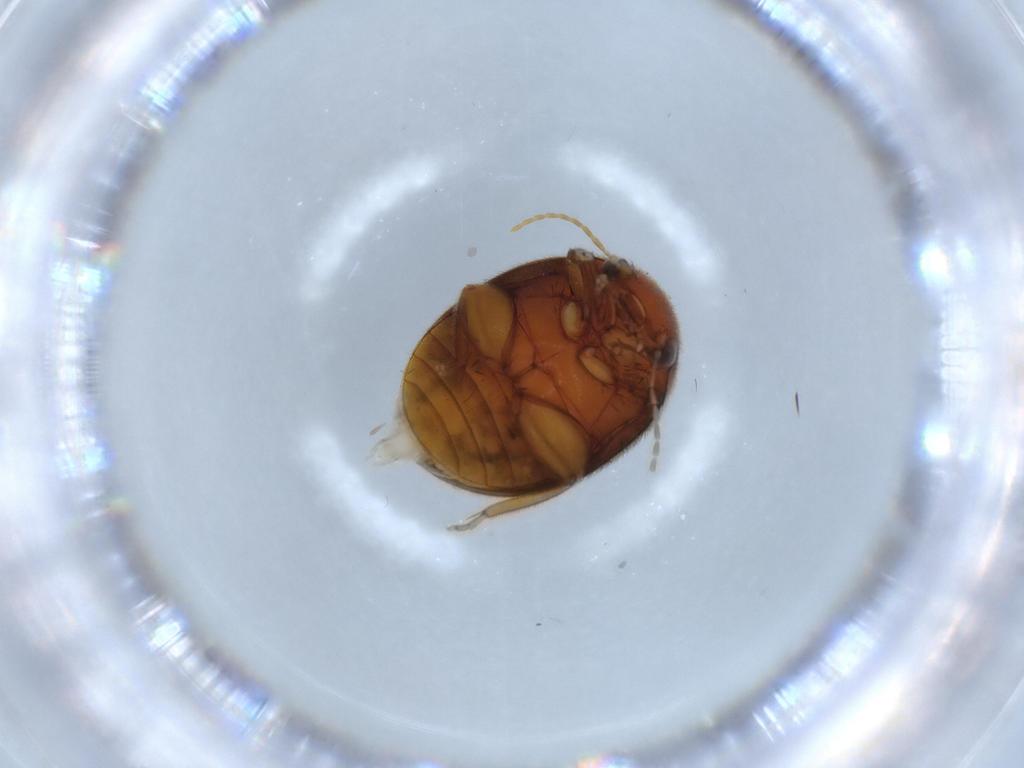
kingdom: Animalia
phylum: Arthropoda
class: Insecta
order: Coleoptera
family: Scirtidae
